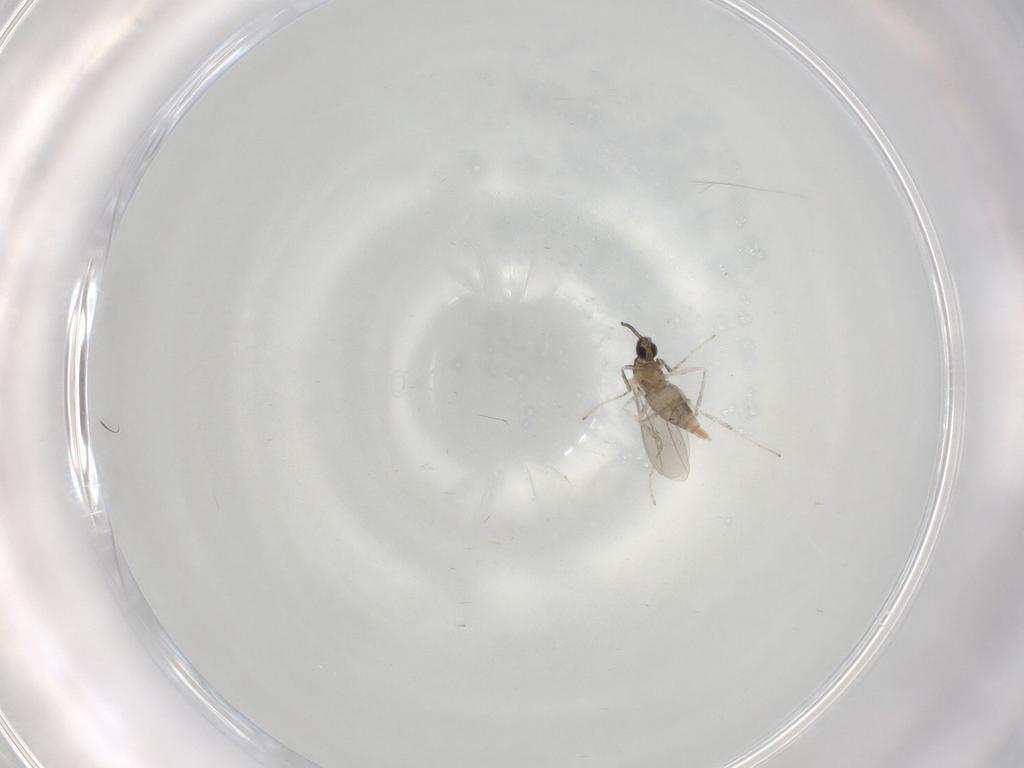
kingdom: Animalia
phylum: Arthropoda
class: Insecta
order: Diptera
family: Cecidomyiidae
